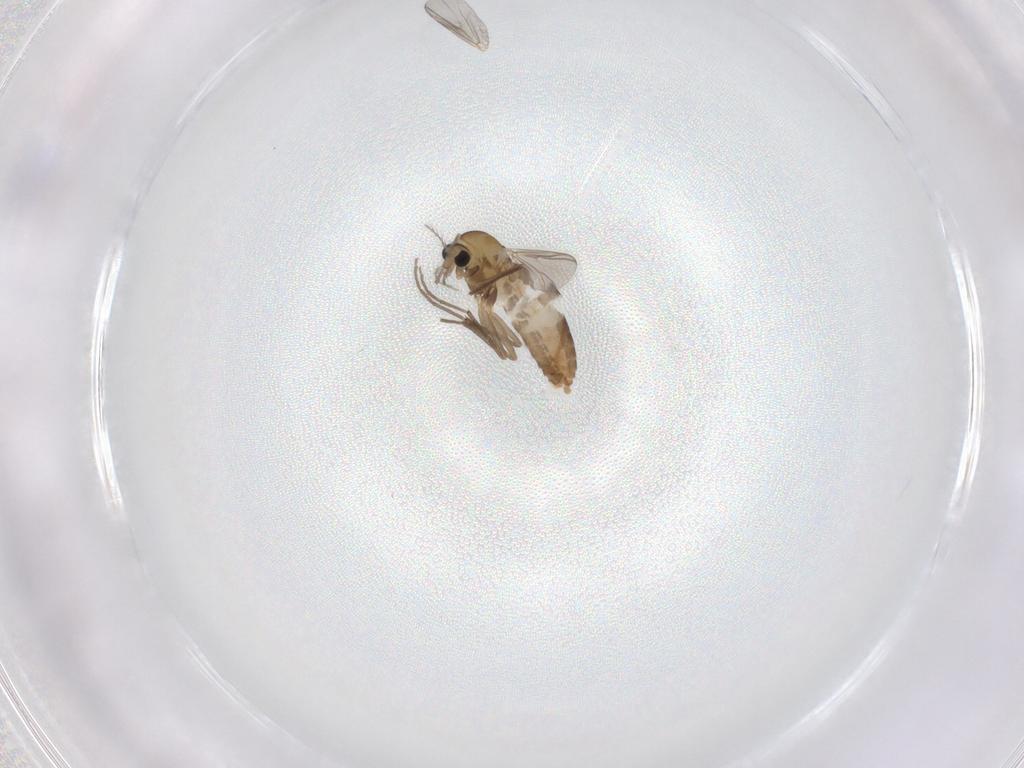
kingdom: Animalia
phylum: Arthropoda
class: Insecta
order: Diptera
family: Chironomidae
